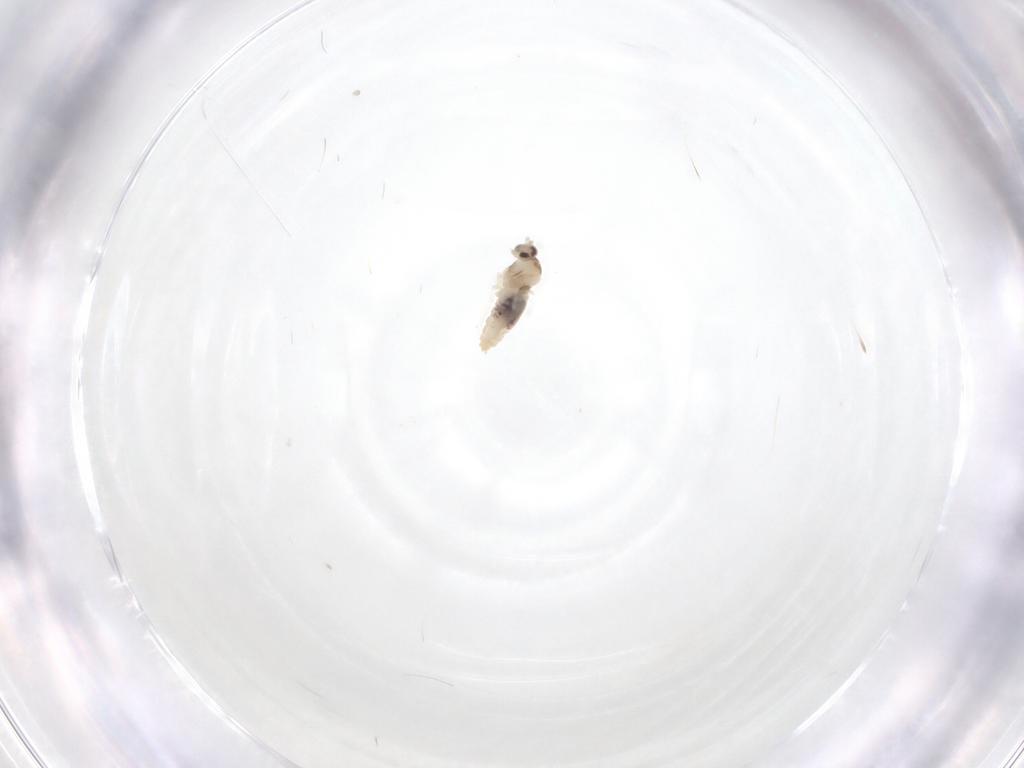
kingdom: Animalia
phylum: Arthropoda
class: Insecta
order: Diptera
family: Cecidomyiidae
